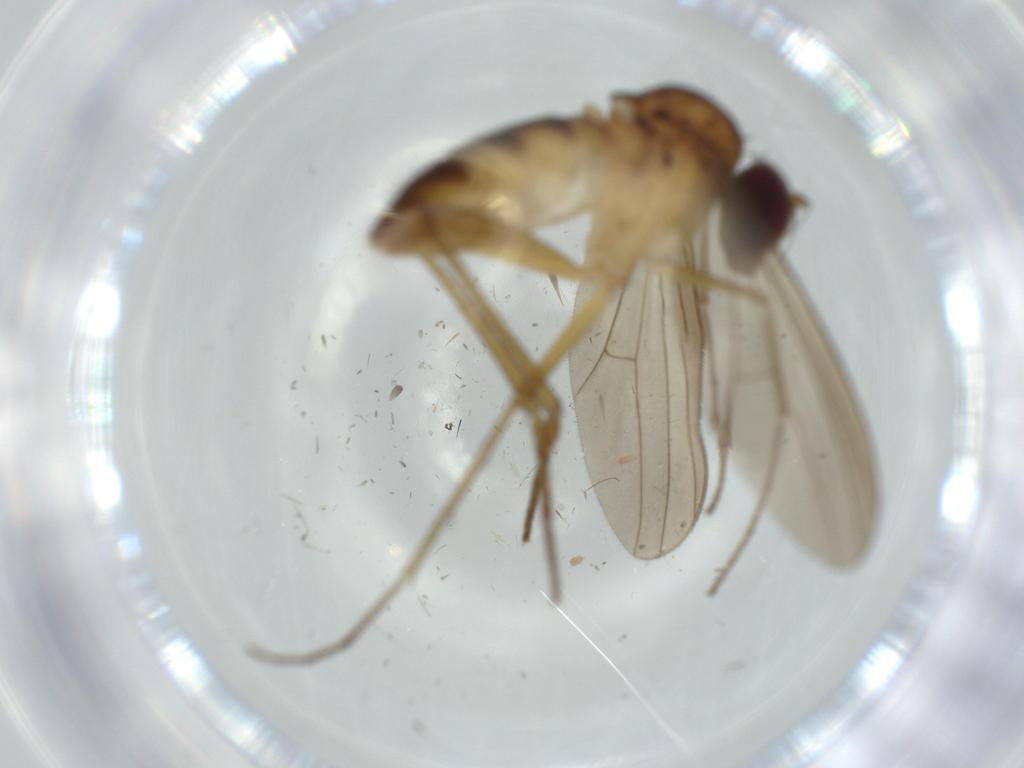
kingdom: Animalia
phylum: Arthropoda
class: Insecta
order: Diptera
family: Dolichopodidae
